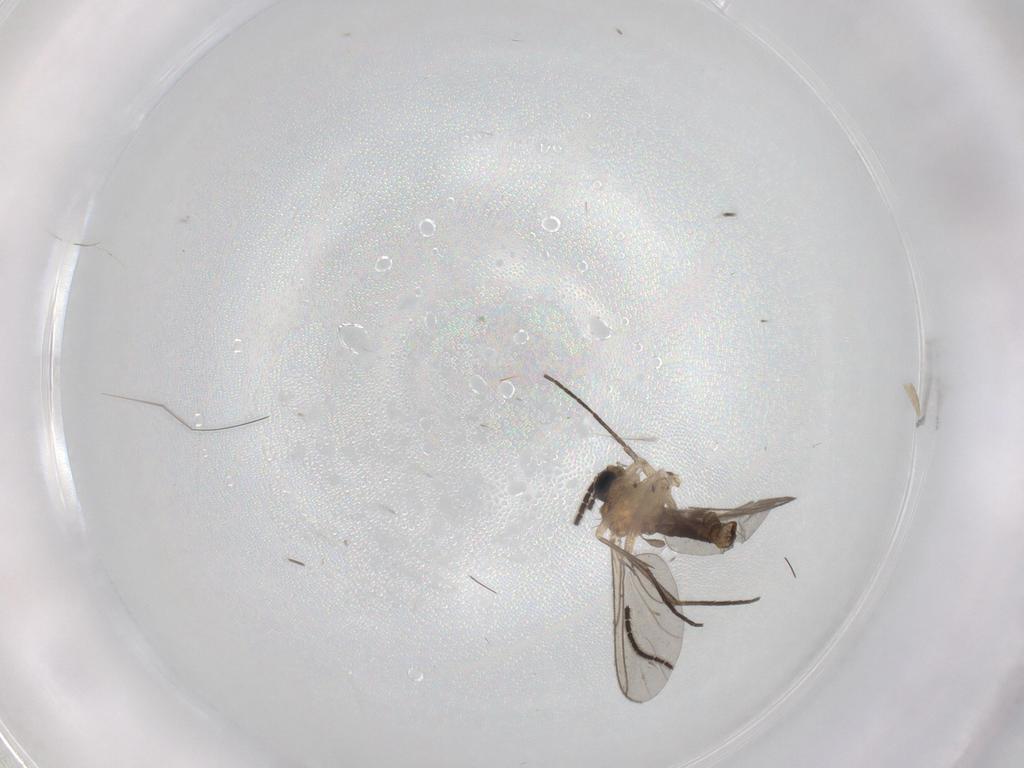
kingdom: Animalia
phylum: Arthropoda
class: Insecta
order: Diptera
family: Sciaridae
